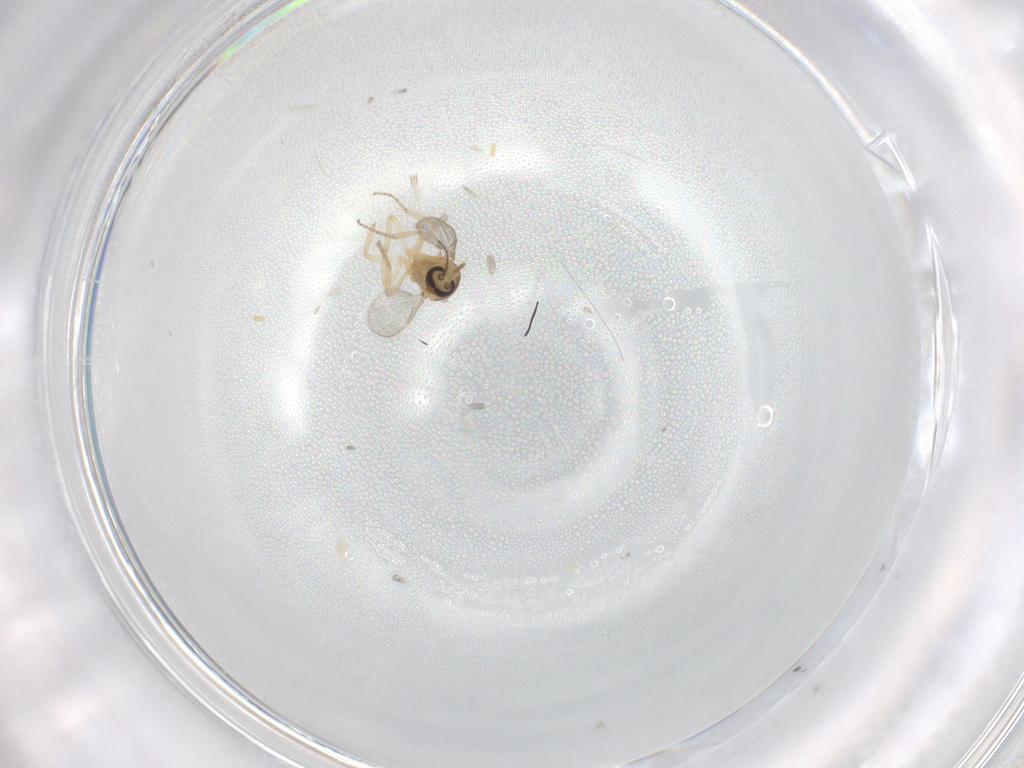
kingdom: Animalia
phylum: Arthropoda
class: Insecta
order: Diptera
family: Ceratopogonidae
